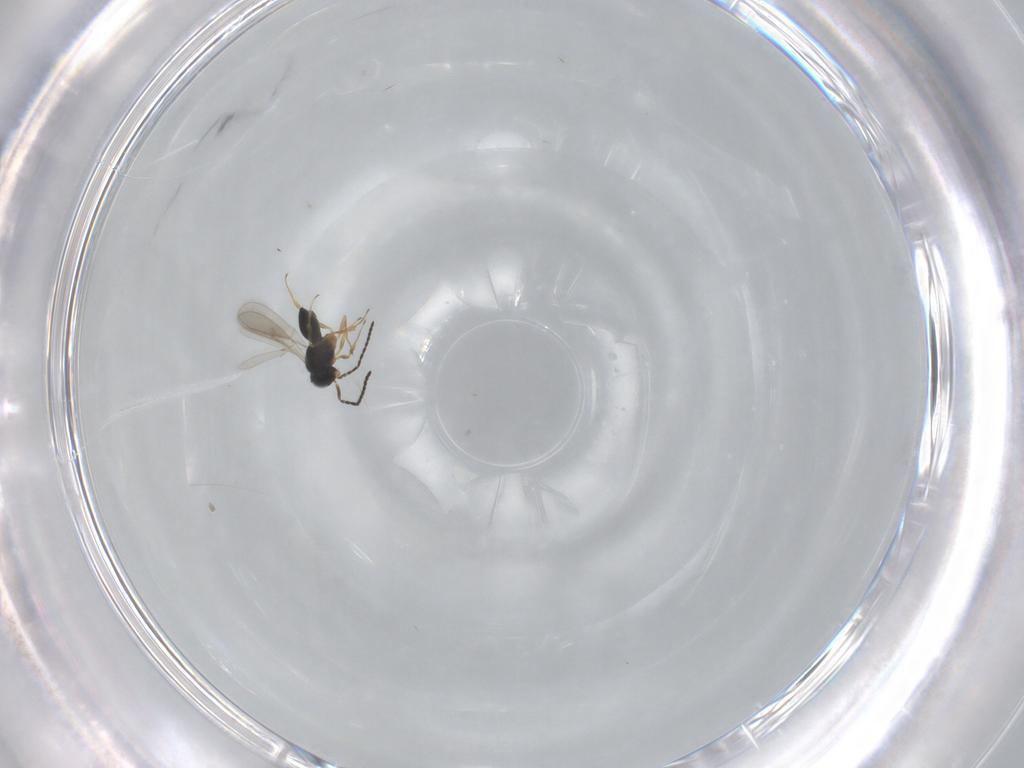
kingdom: Animalia
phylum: Arthropoda
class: Insecta
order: Hymenoptera
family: Scelionidae
